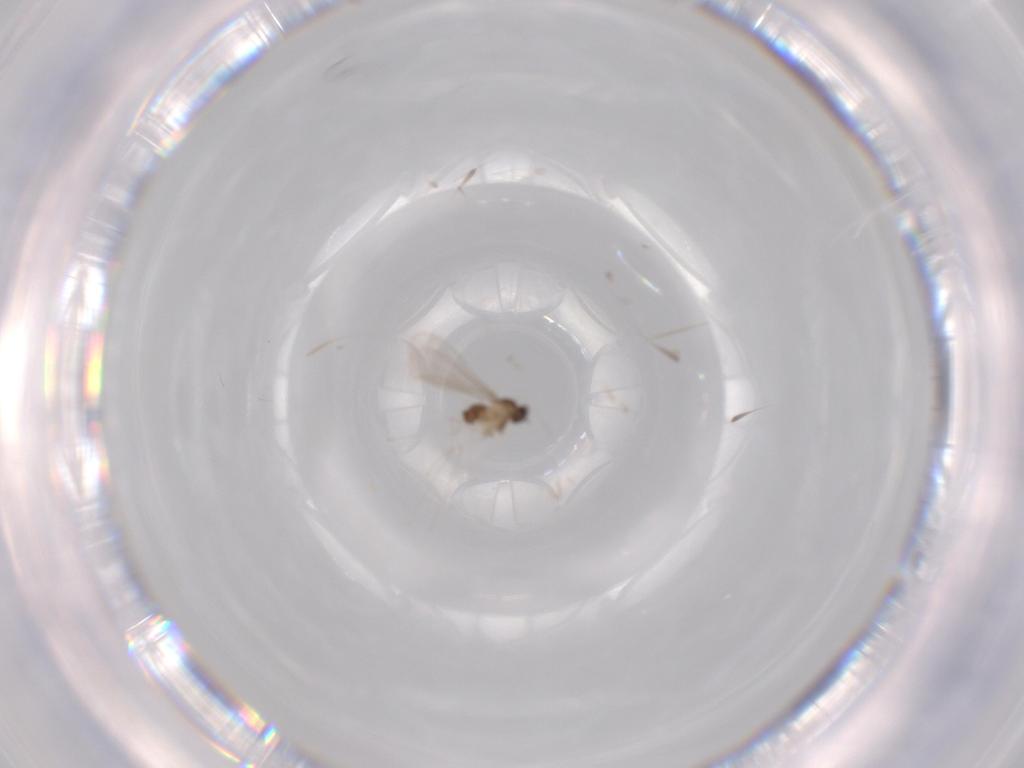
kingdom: Animalia
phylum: Arthropoda
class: Insecta
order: Diptera
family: Cecidomyiidae
